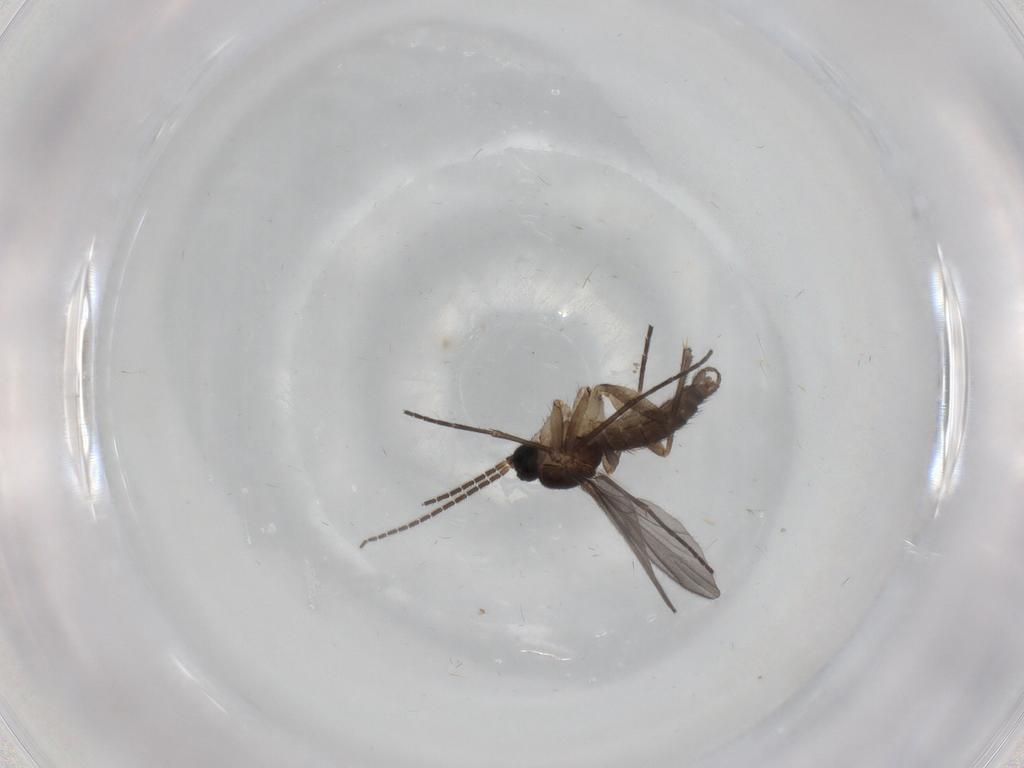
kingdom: Animalia
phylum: Arthropoda
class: Insecta
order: Diptera
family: Sciaridae
